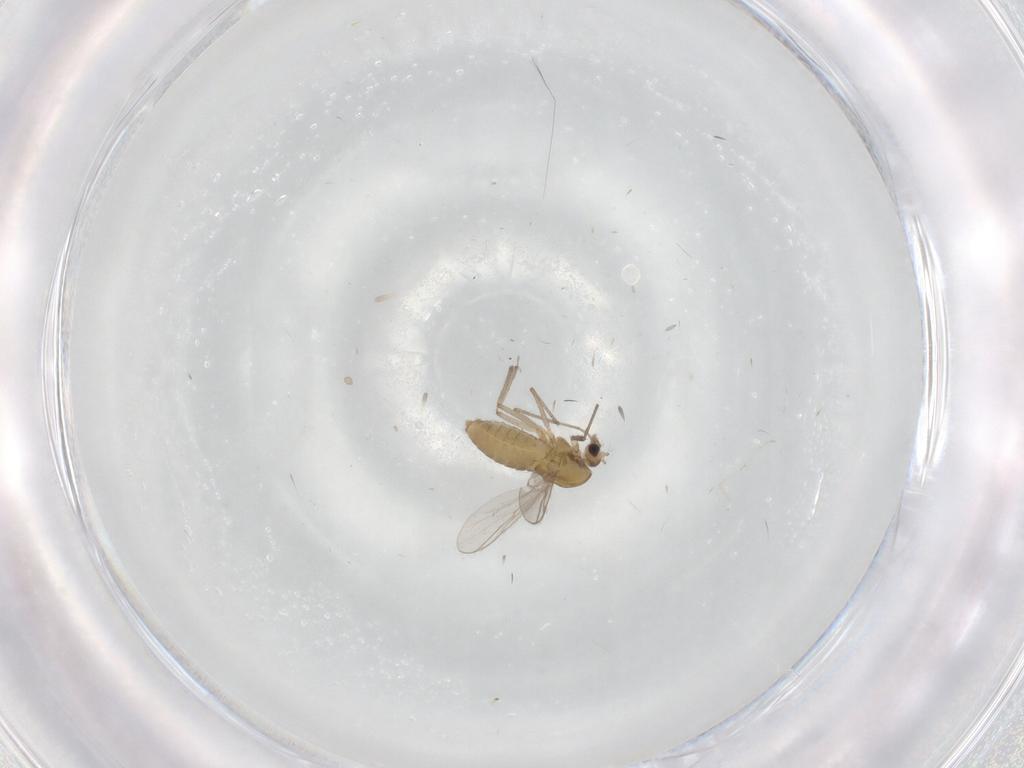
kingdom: Animalia
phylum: Arthropoda
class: Insecta
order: Diptera
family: Chironomidae
